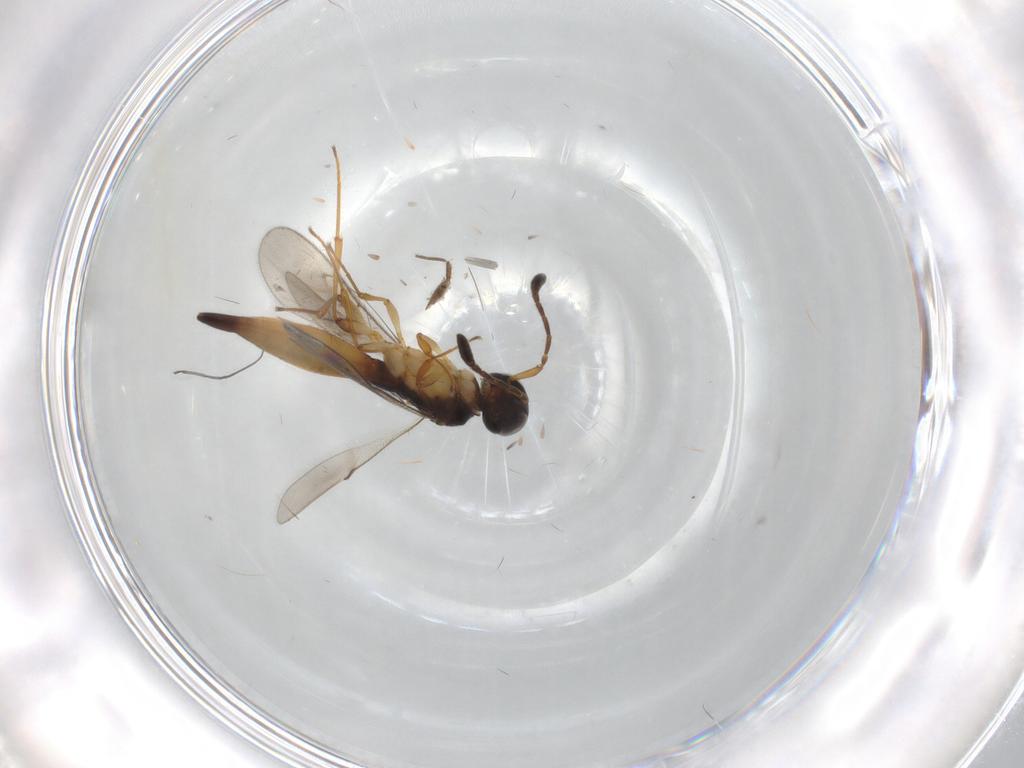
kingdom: Animalia
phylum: Arthropoda
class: Insecta
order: Hymenoptera
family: Scelionidae
